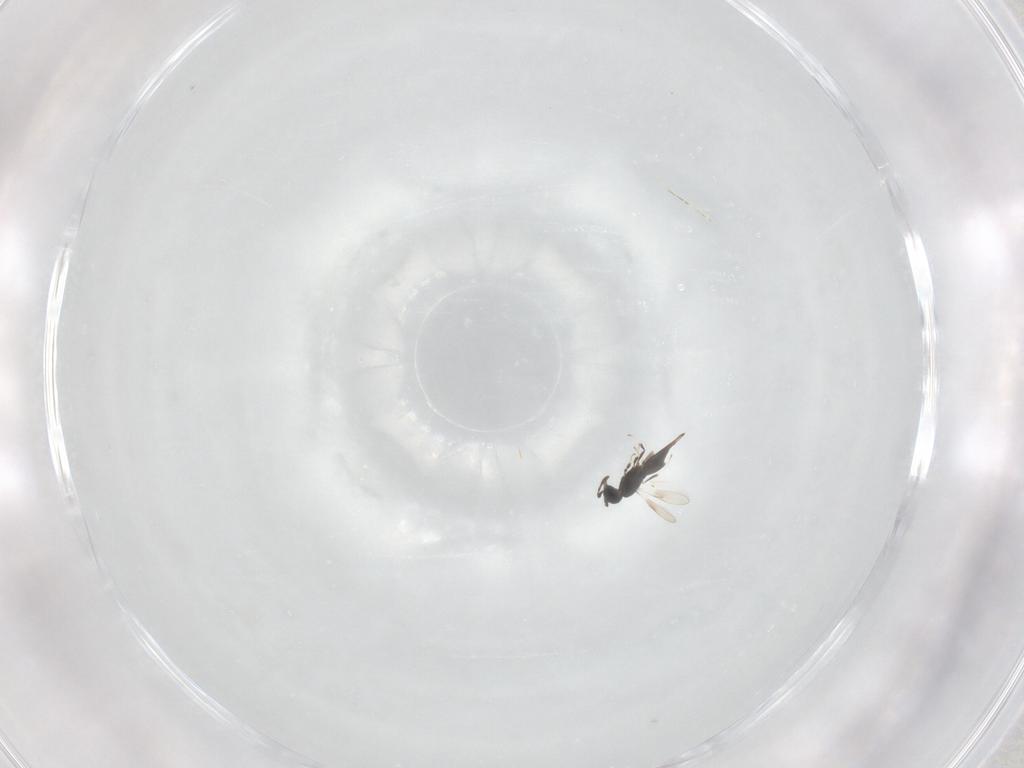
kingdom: Animalia
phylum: Arthropoda
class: Insecta
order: Hymenoptera
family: Scelionidae
